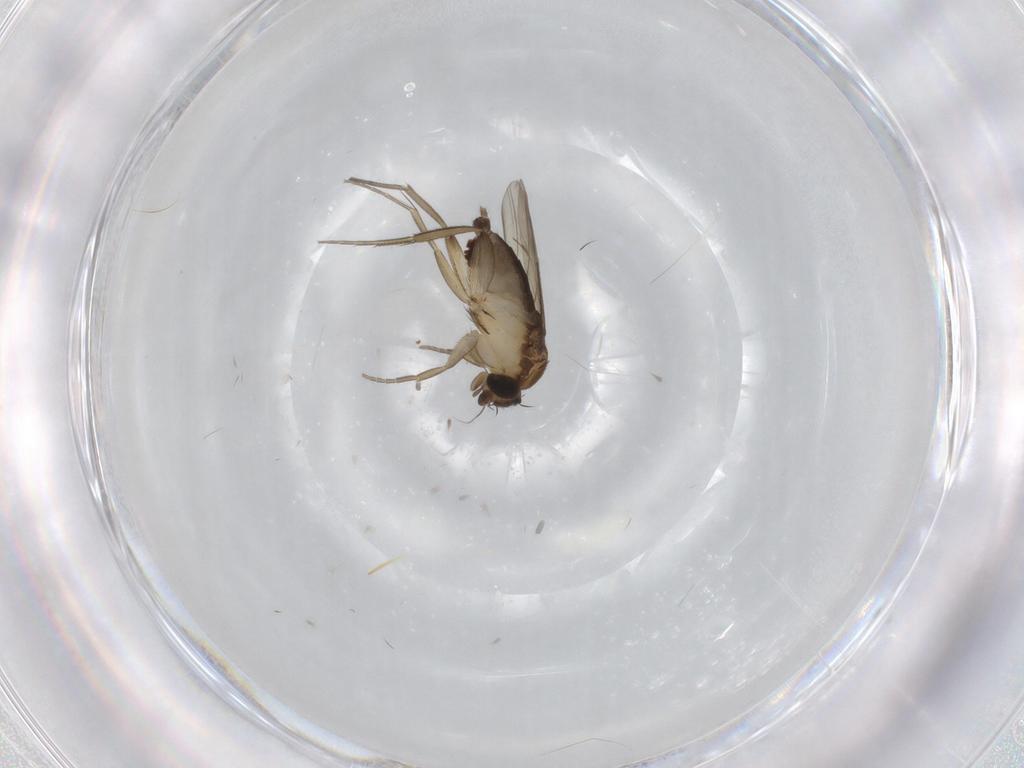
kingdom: Animalia
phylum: Arthropoda
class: Insecta
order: Diptera
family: Phoridae
